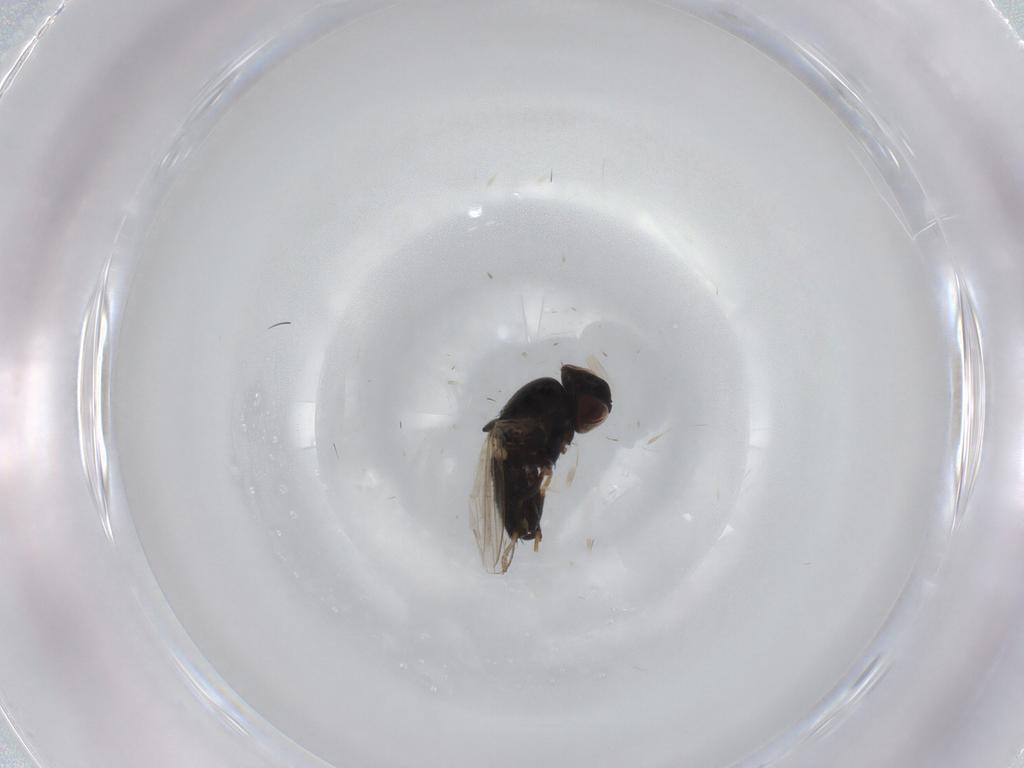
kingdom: Animalia
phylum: Arthropoda
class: Insecta
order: Diptera
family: Milichiidae
